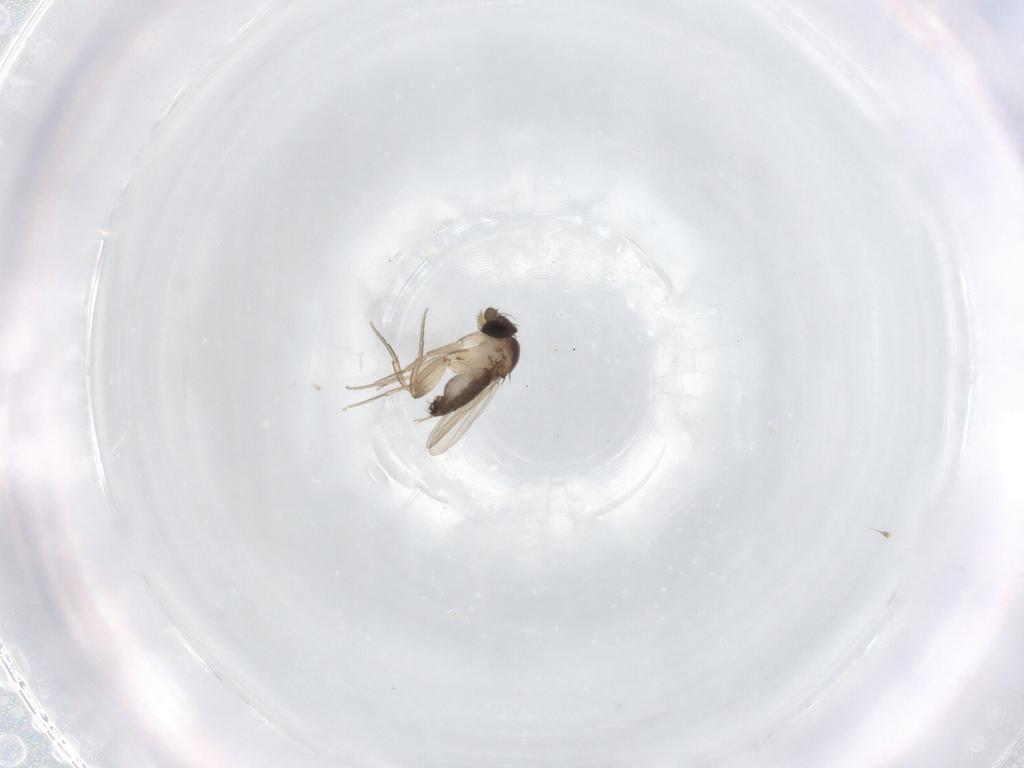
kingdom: Animalia
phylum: Arthropoda
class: Insecta
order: Diptera
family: Phoridae
